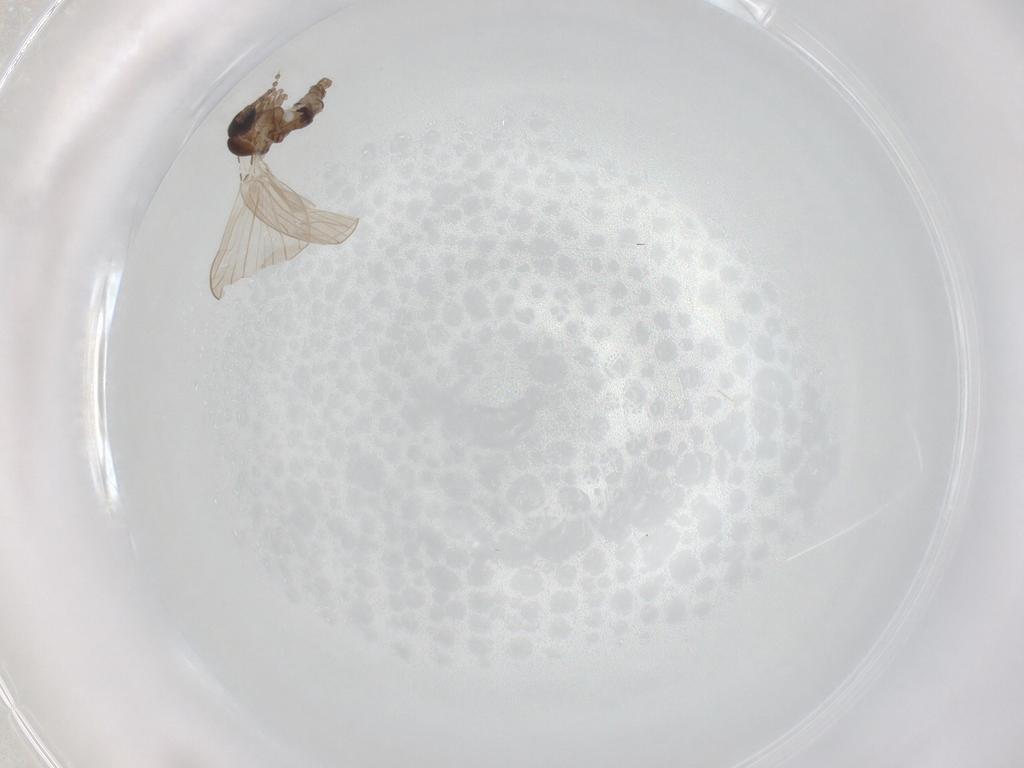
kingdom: Animalia
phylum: Arthropoda
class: Insecta
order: Diptera
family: Psychodidae
